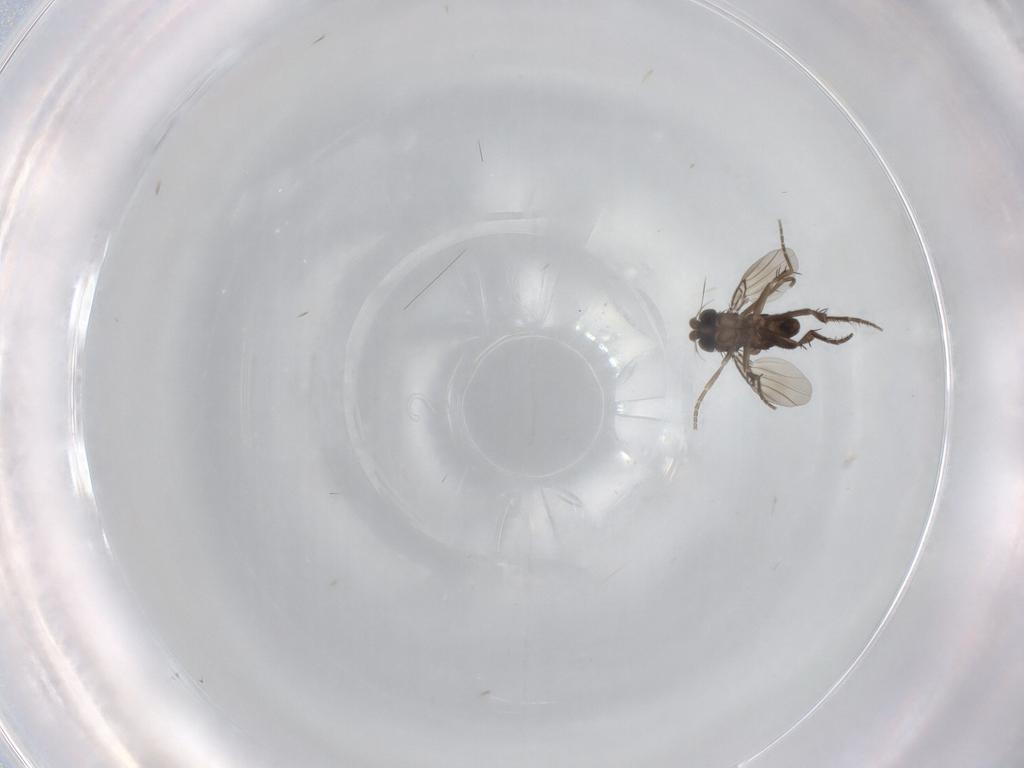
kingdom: Animalia
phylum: Arthropoda
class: Insecta
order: Diptera
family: Phoridae
